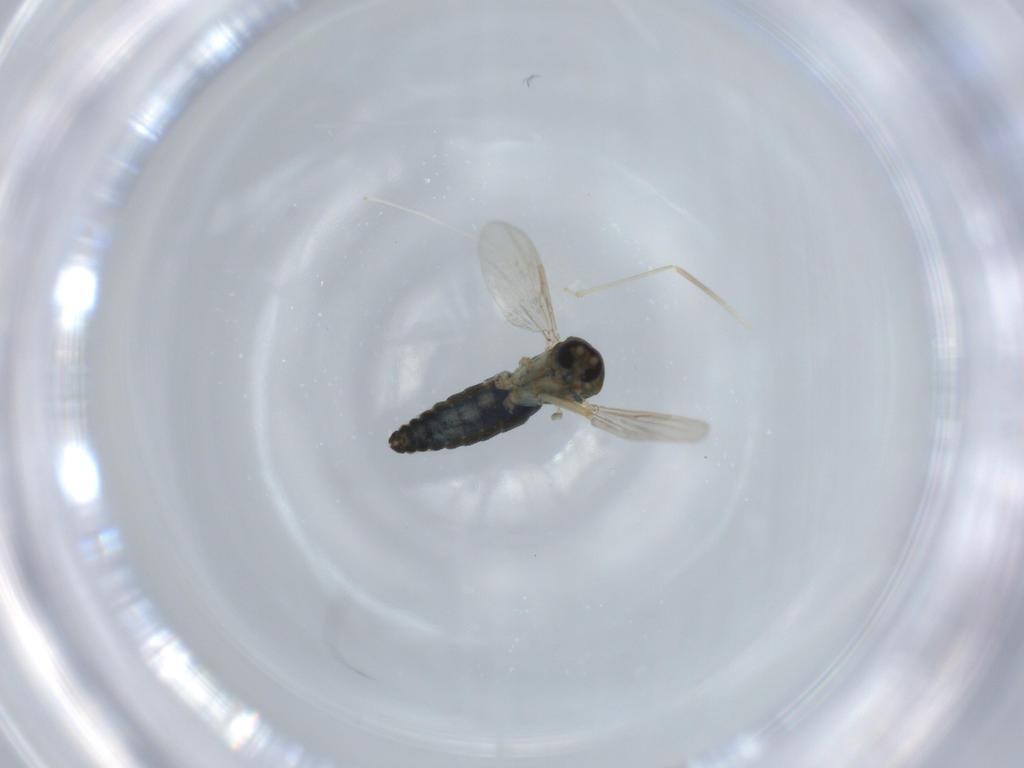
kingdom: Animalia
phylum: Arthropoda
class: Insecta
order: Diptera
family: Ceratopogonidae
